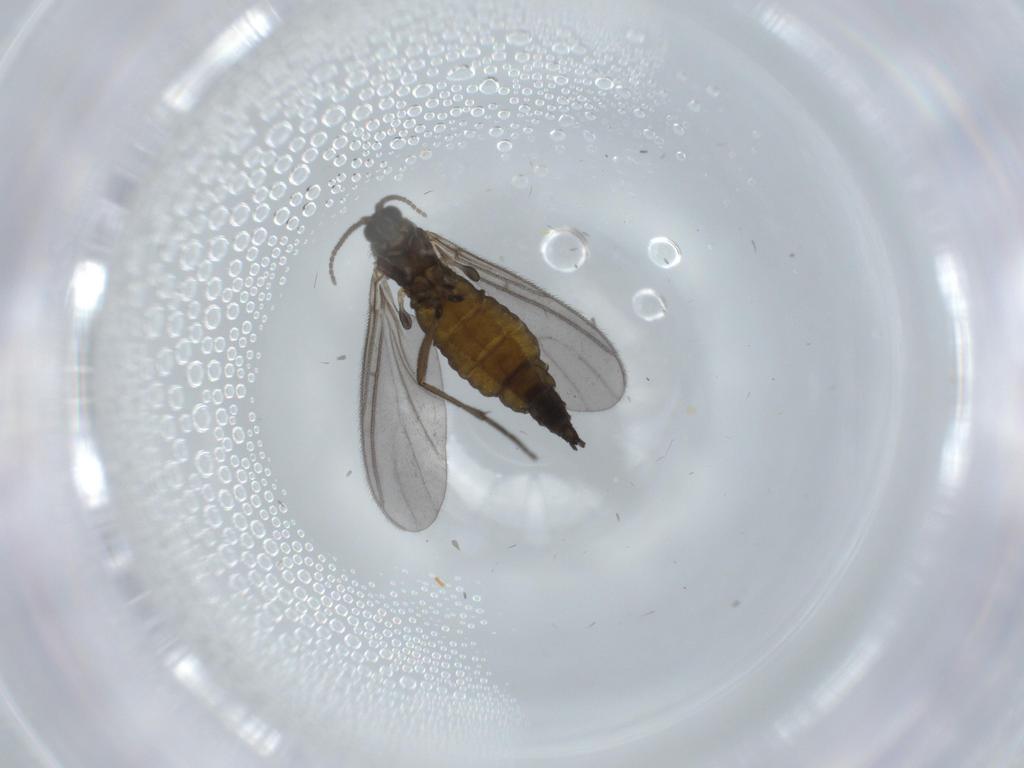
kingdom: Animalia
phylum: Arthropoda
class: Insecta
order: Diptera
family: Sciaridae
